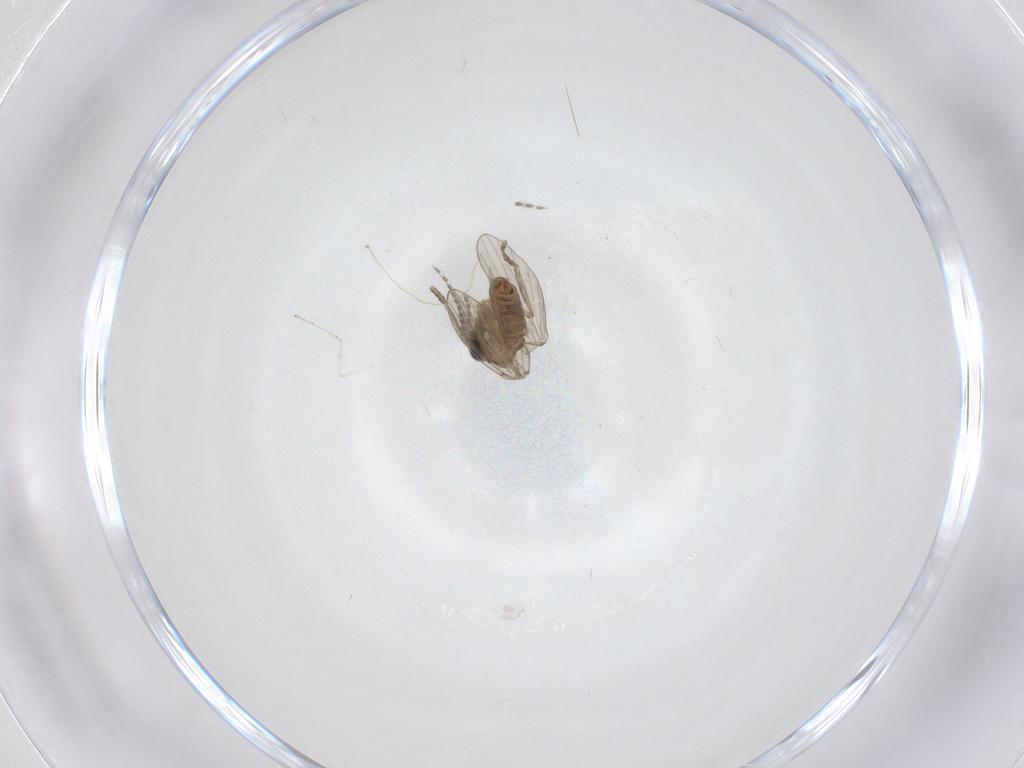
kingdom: Animalia
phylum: Arthropoda
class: Insecta
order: Diptera
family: Cecidomyiidae
